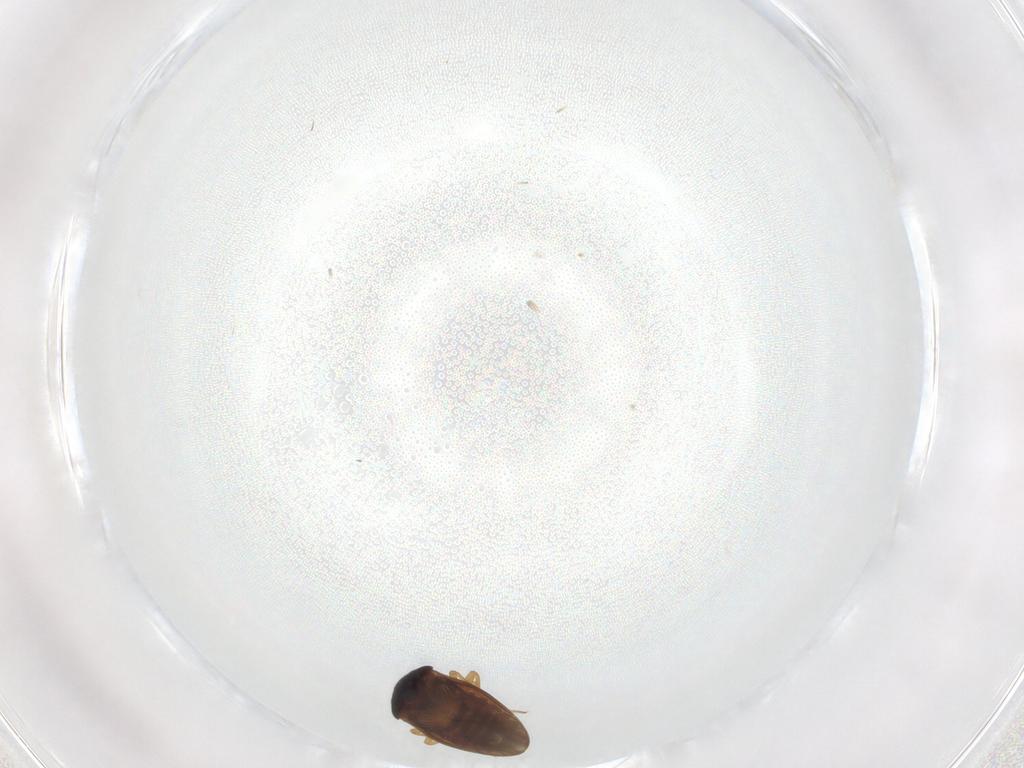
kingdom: Animalia
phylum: Arthropoda
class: Insecta
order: Hemiptera
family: Schizopteridae
